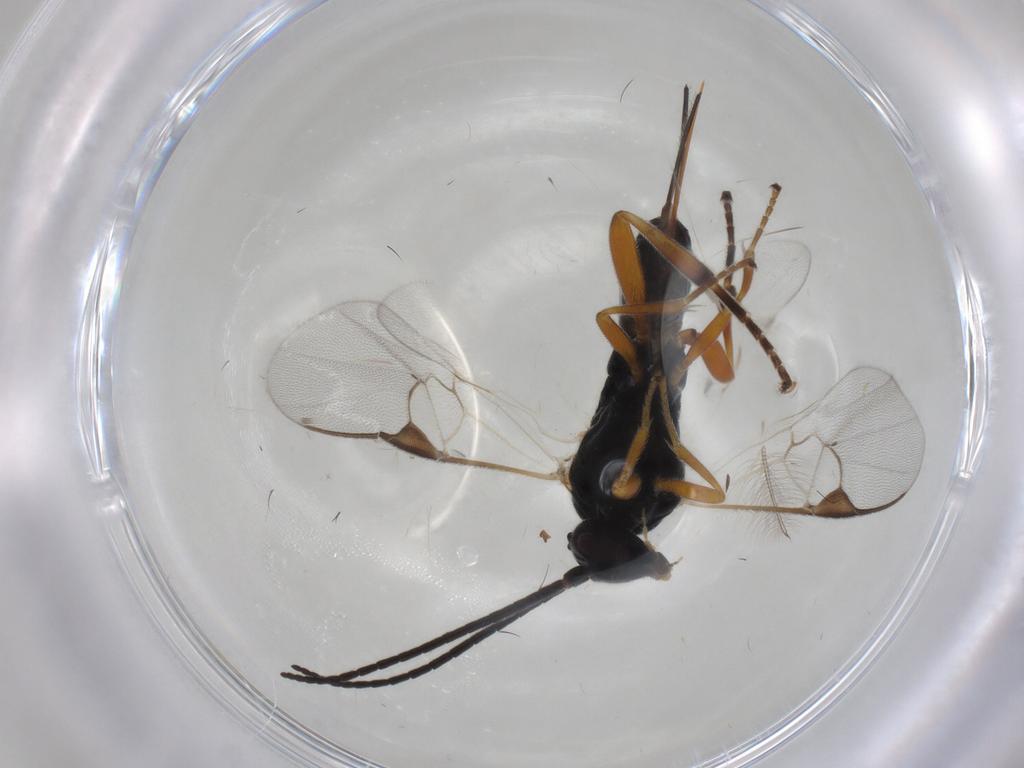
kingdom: Animalia
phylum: Arthropoda
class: Insecta
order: Hymenoptera
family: Braconidae
